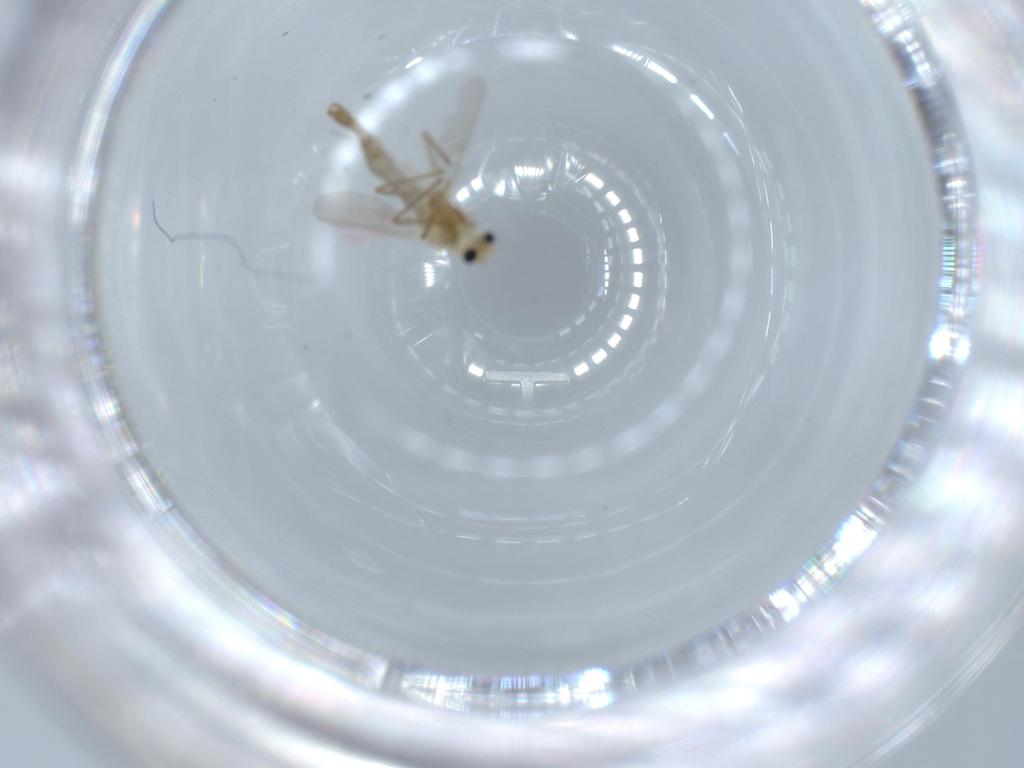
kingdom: Animalia
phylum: Arthropoda
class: Insecta
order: Diptera
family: Chironomidae
